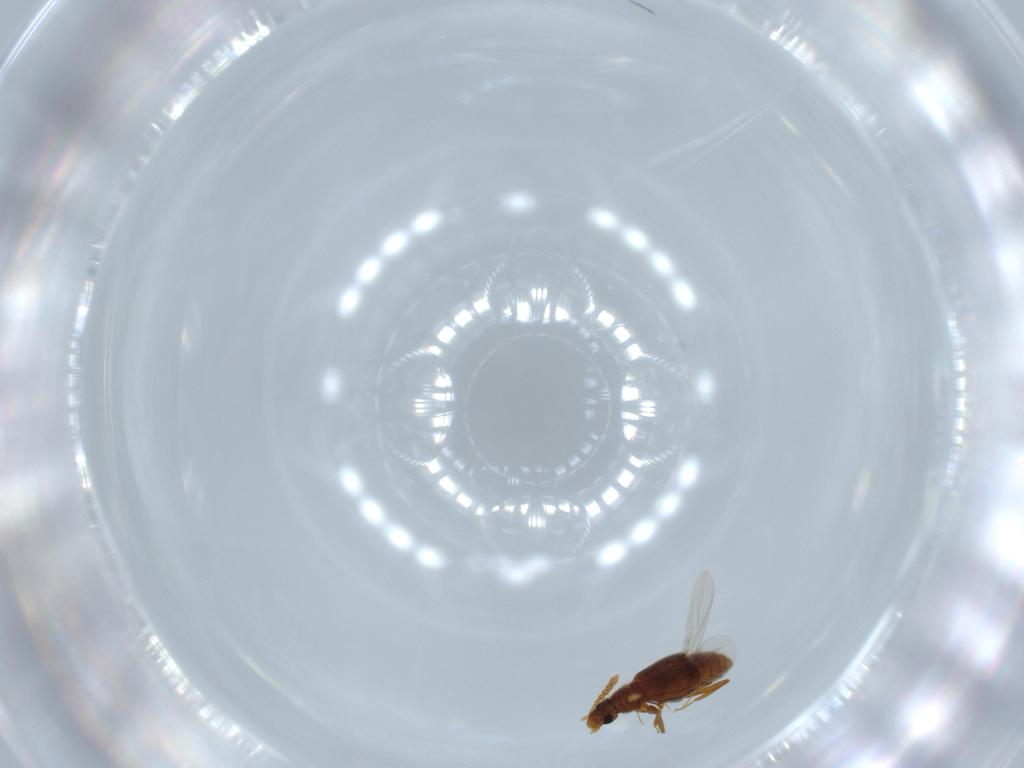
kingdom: Animalia
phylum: Arthropoda
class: Insecta
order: Coleoptera
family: Staphylinidae
